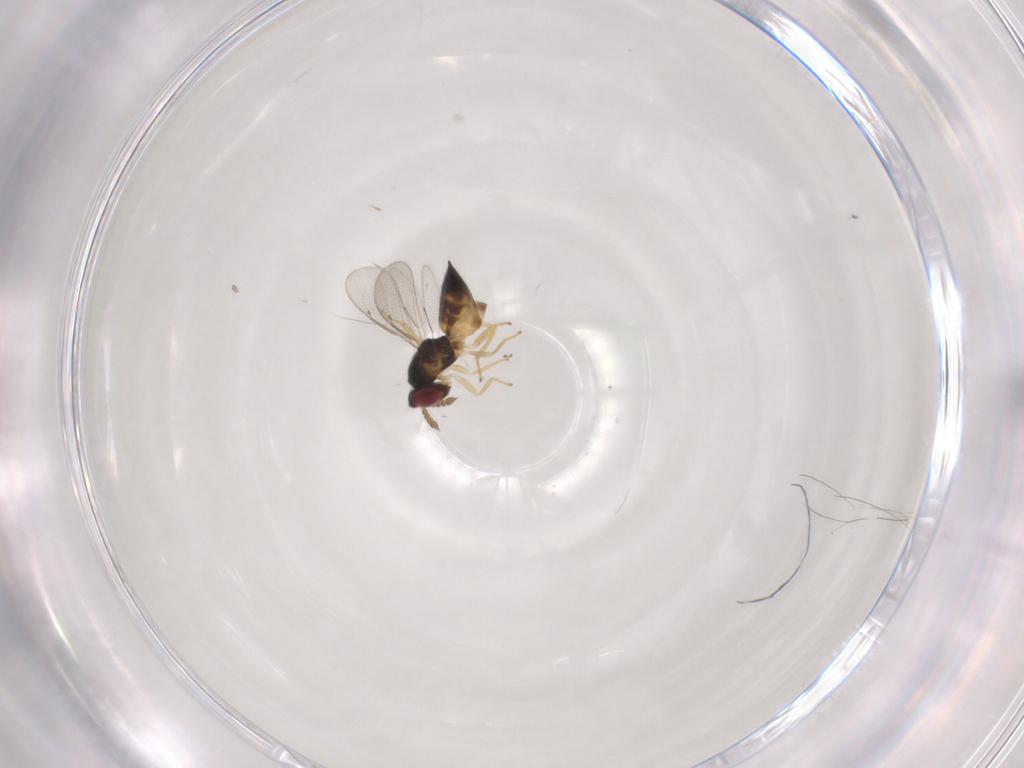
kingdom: Animalia
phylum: Arthropoda
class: Insecta
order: Hymenoptera
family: Eulophidae
